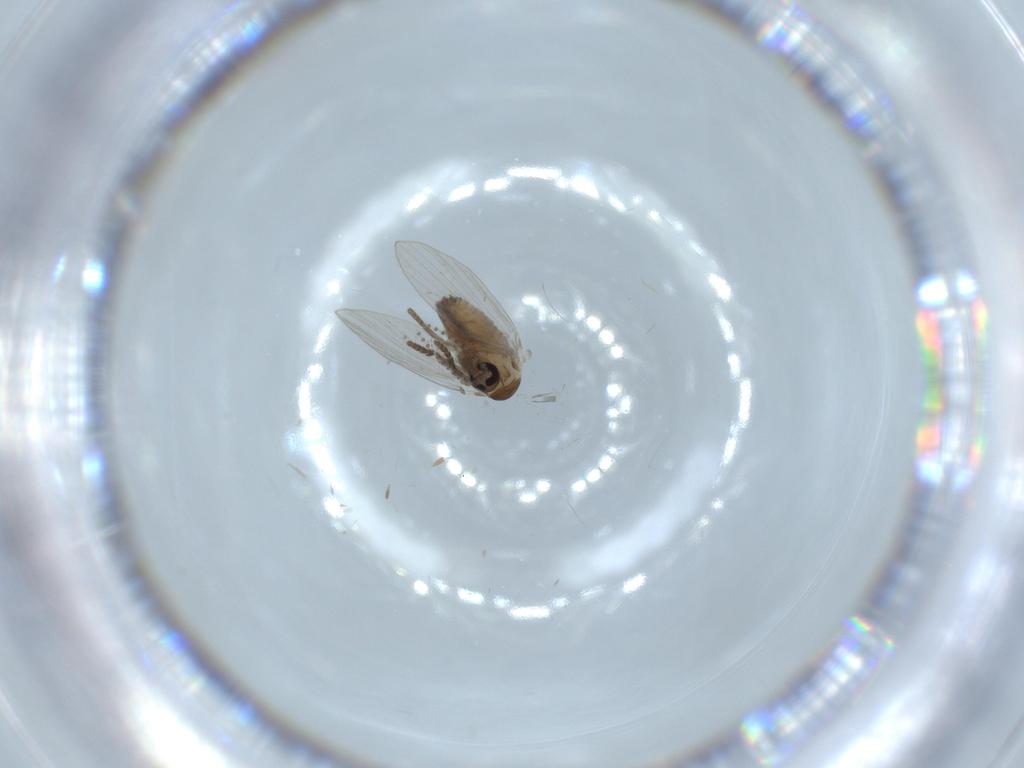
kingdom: Animalia
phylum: Arthropoda
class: Insecta
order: Diptera
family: Psychodidae
